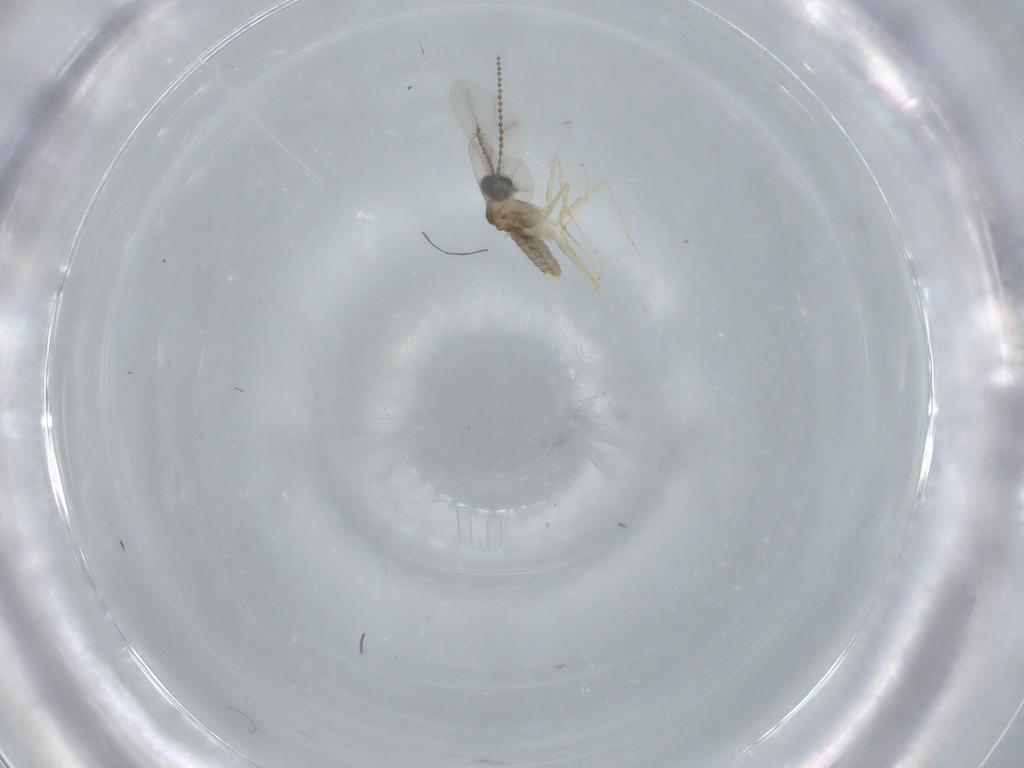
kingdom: Animalia
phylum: Arthropoda
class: Insecta
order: Diptera
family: Cecidomyiidae
